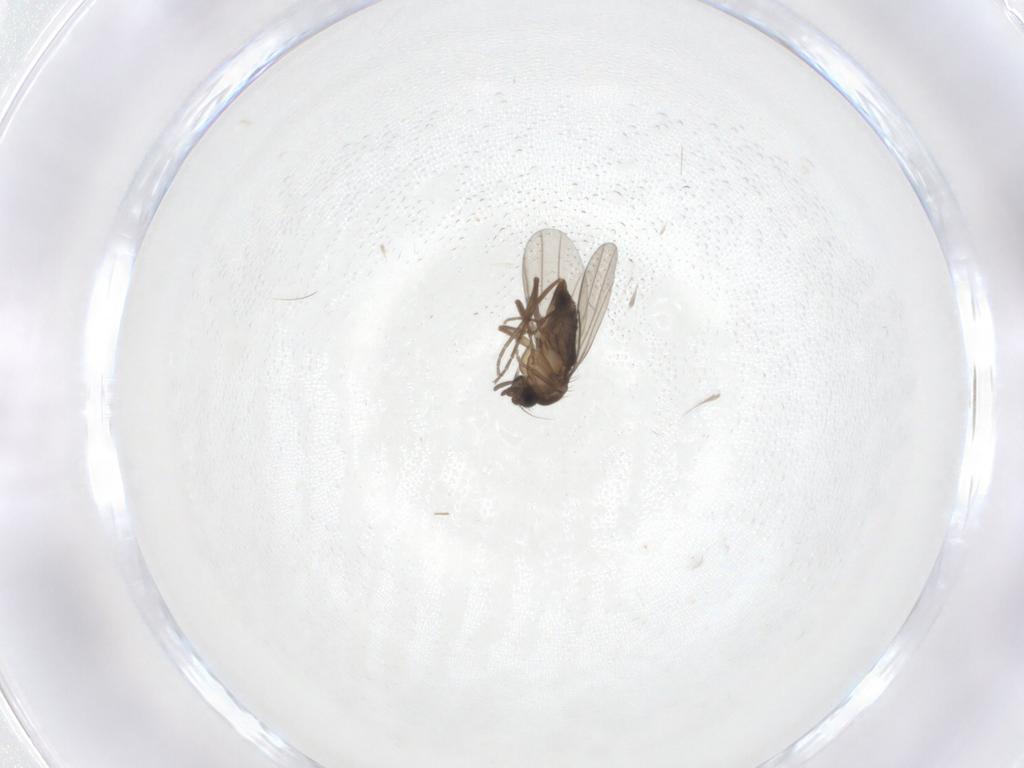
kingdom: Animalia
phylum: Arthropoda
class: Insecta
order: Diptera
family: Phoridae
